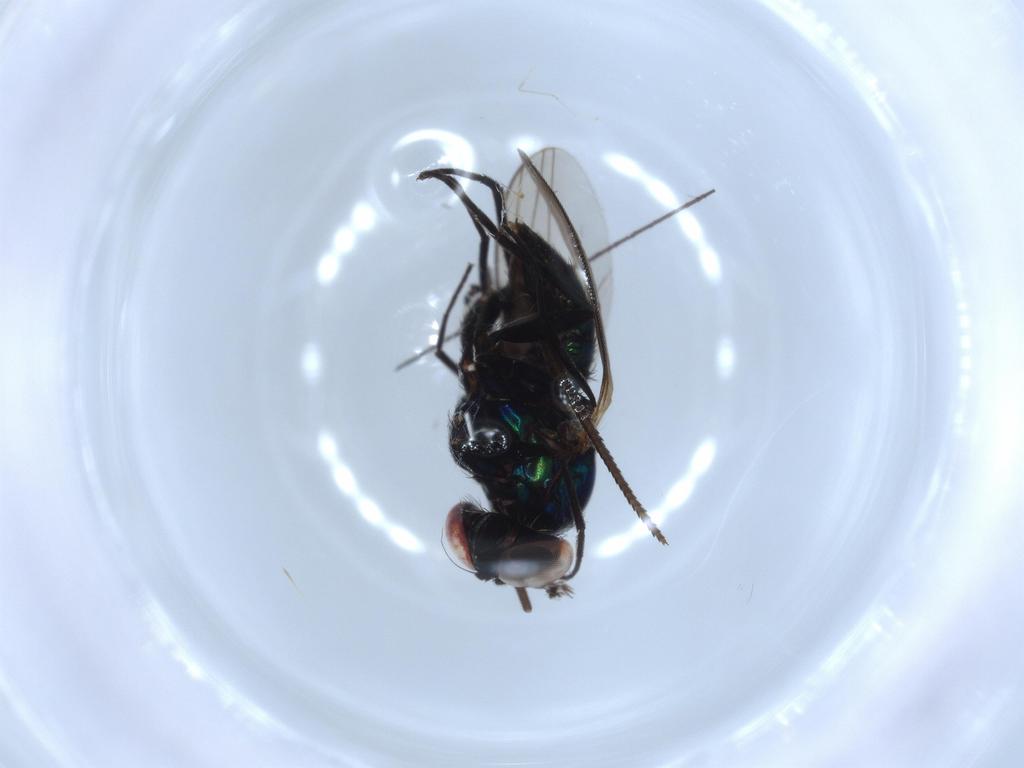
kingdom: Animalia
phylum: Arthropoda
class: Insecta
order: Diptera
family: Dolichopodidae
